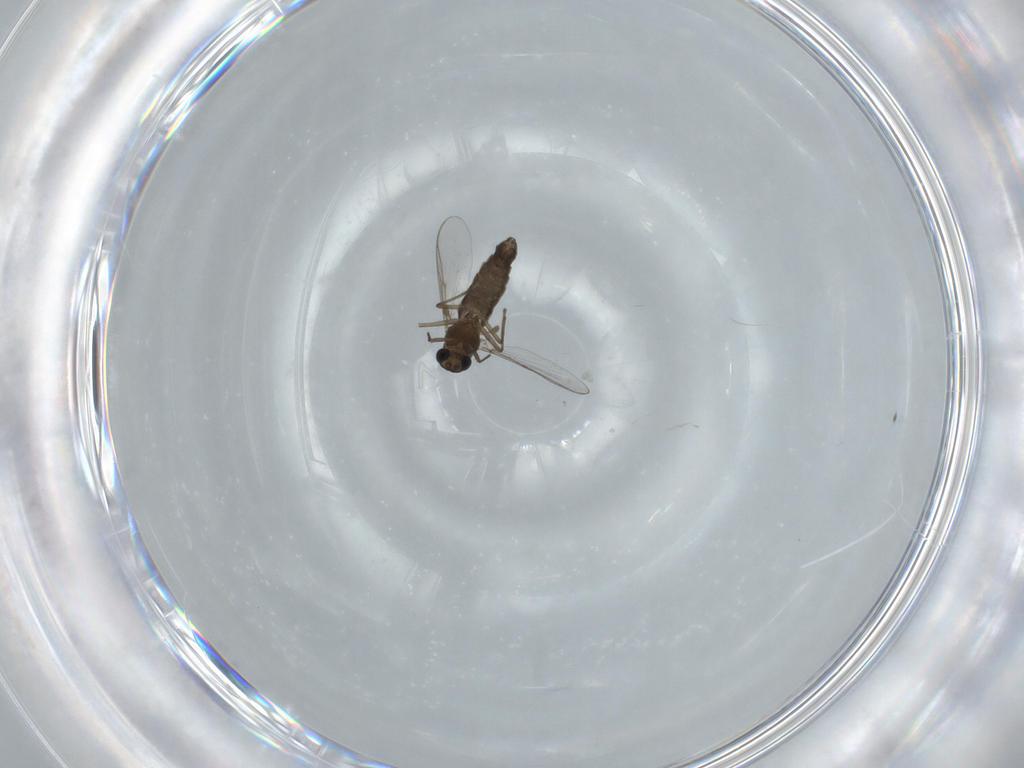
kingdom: Animalia
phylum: Arthropoda
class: Insecta
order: Diptera
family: Chironomidae
